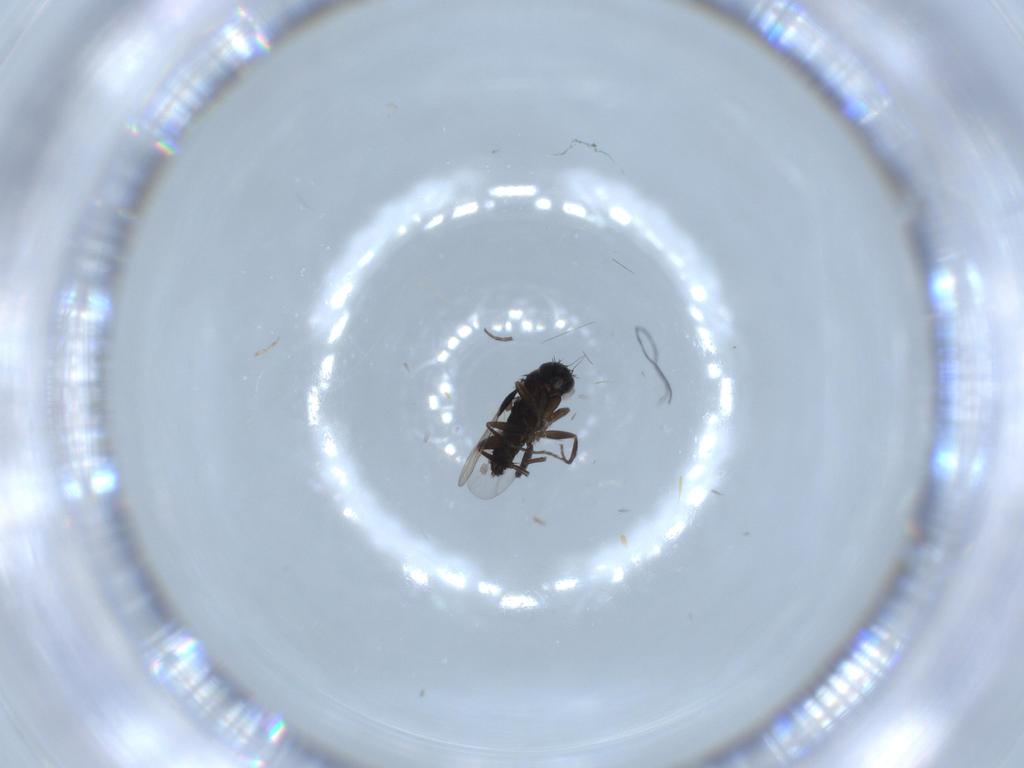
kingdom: Animalia
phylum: Arthropoda
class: Insecta
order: Diptera
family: Phoridae
